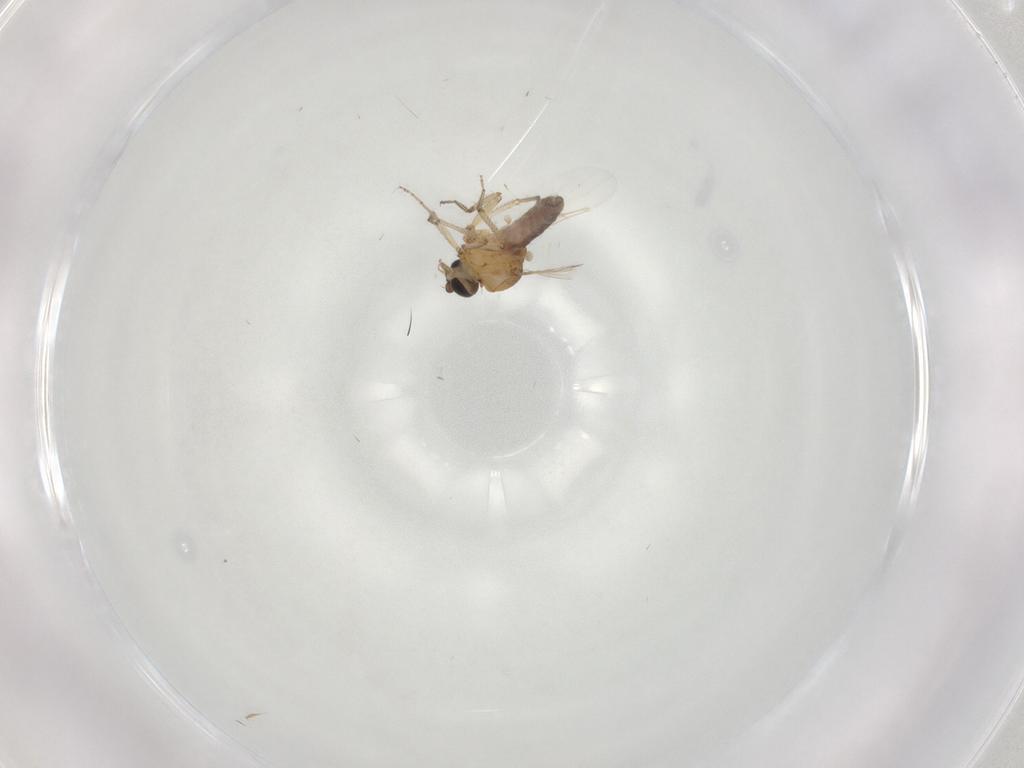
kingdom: Animalia
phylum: Arthropoda
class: Insecta
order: Diptera
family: Ceratopogonidae
